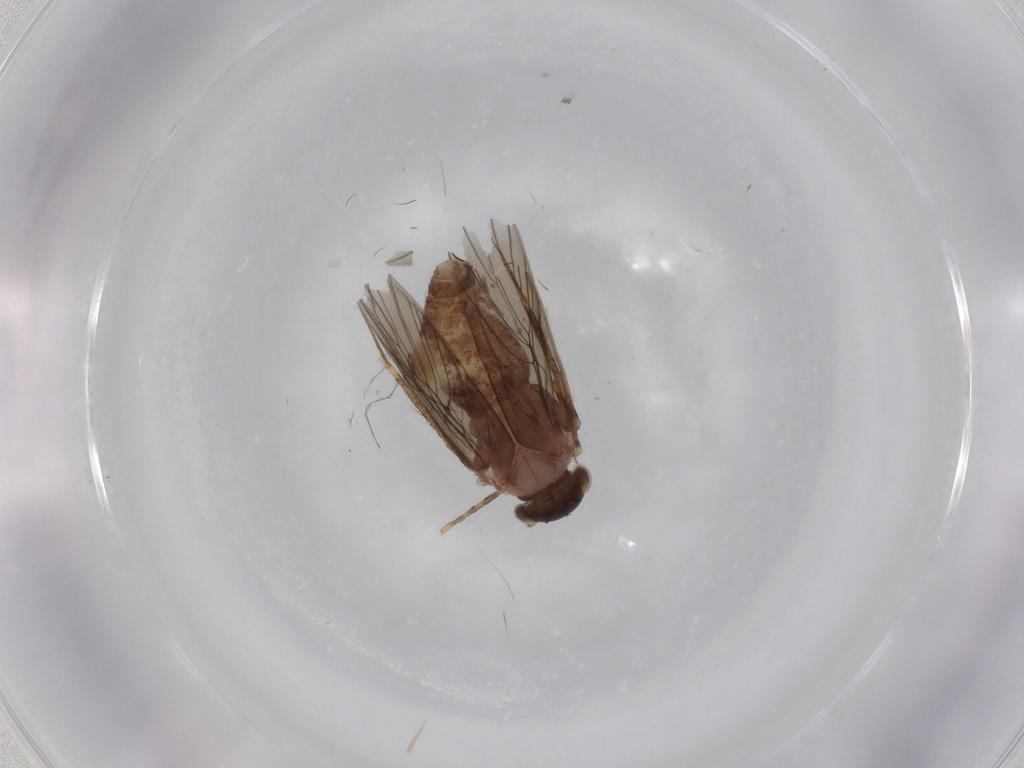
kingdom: Animalia
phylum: Arthropoda
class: Insecta
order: Psocodea
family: Lepidopsocidae
